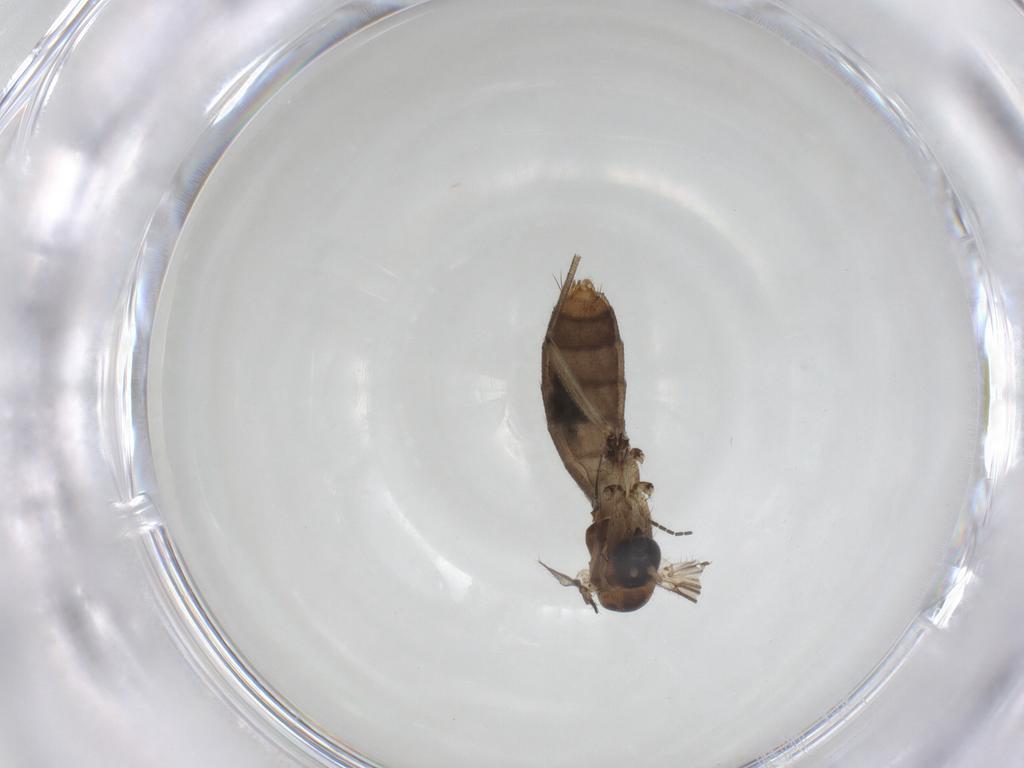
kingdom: Animalia
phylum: Arthropoda
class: Insecta
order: Diptera
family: Mycetophilidae
